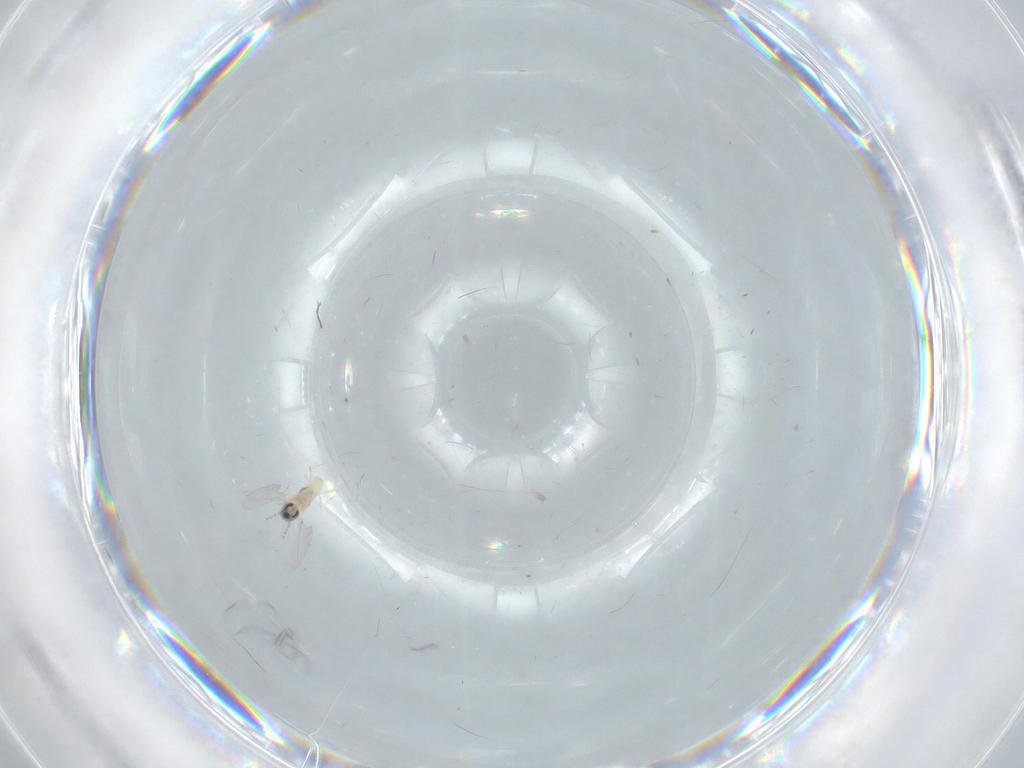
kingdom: Animalia
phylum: Arthropoda
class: Insecta
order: Diptera
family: Cecidomyiidae
